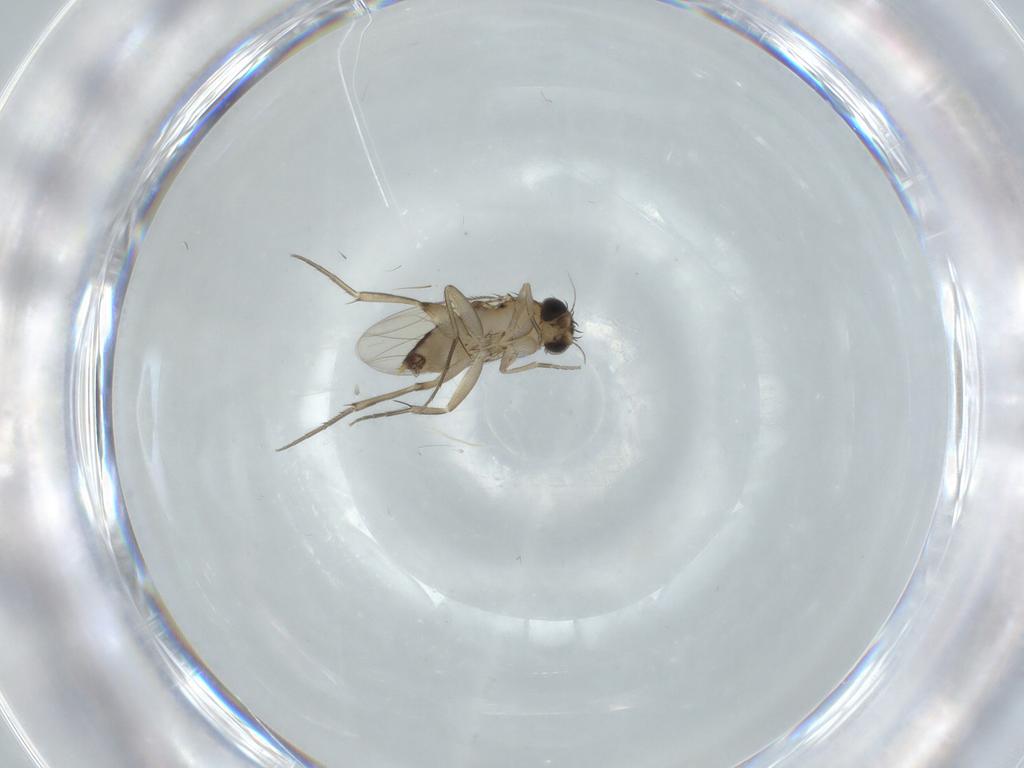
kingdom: Animalia
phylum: Arthropoda
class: Insecta
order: Diptera
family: Phoridae
